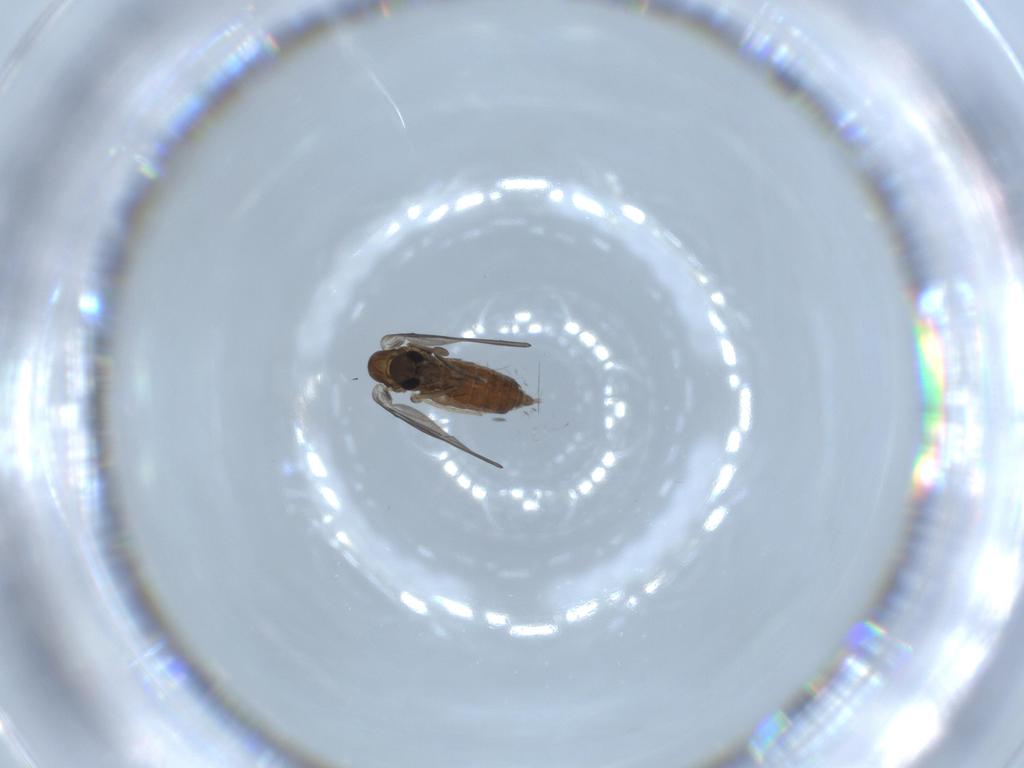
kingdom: Animalia
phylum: Arthropoda
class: Insecta
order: Diptera
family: Psychodidae
